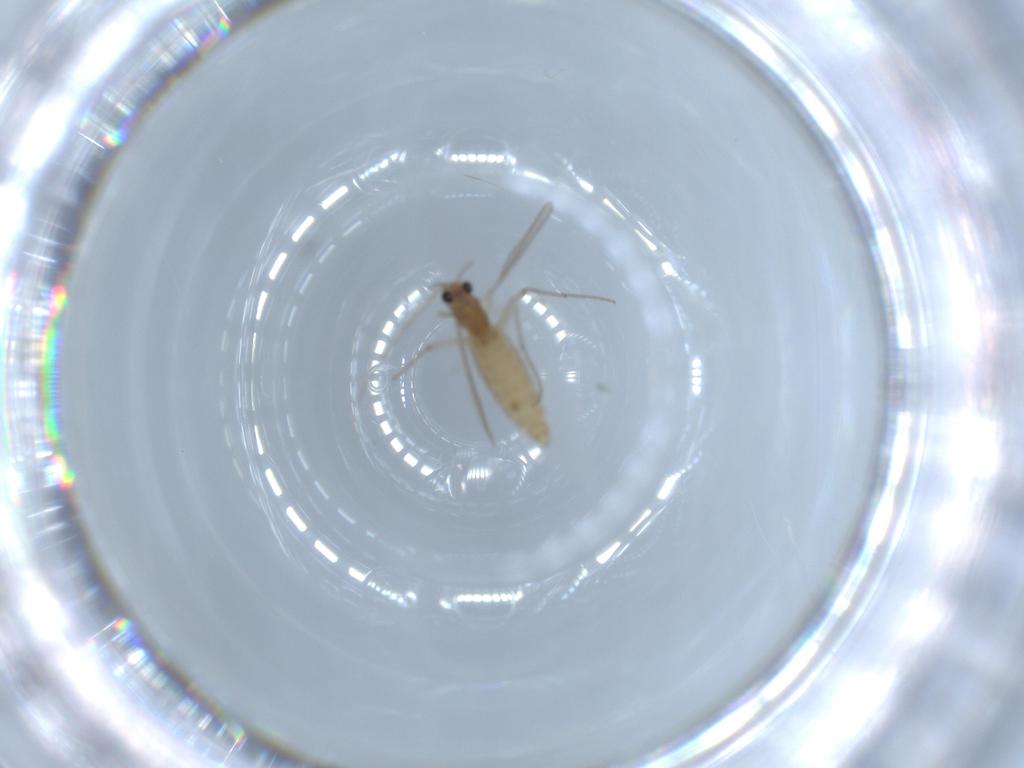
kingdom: Animalia
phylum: Arthropoda
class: Insecta
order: Diptera
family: Chironomidae
